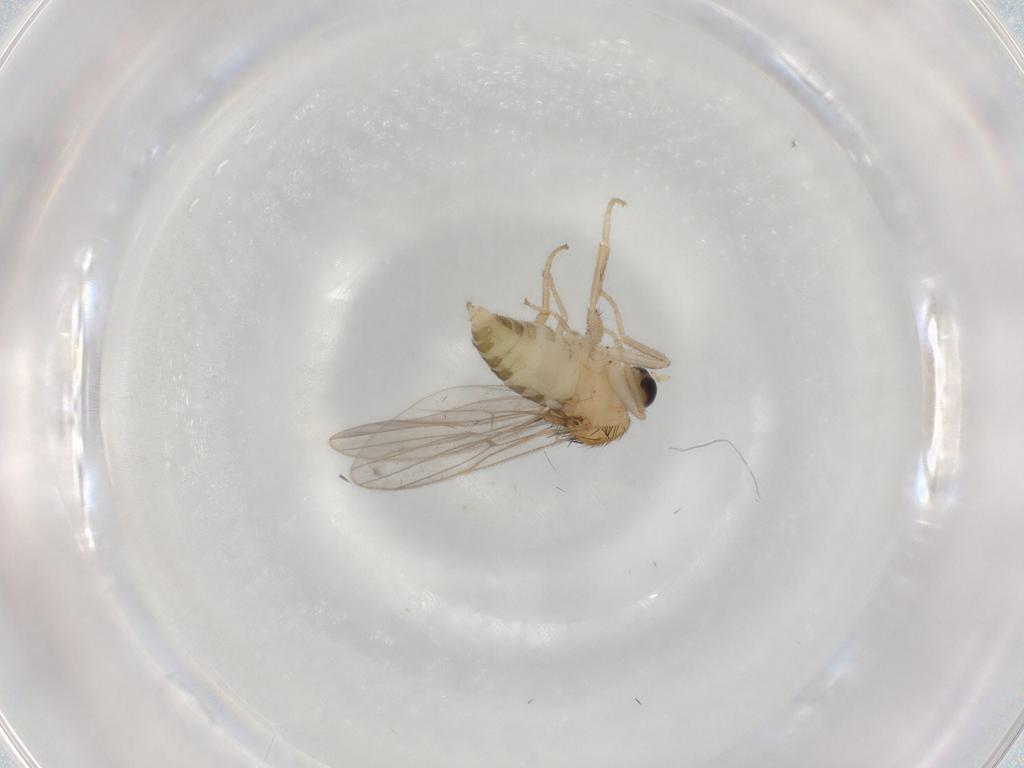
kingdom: Animalia
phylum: Arthropoda
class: Insecta
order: Diptera
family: Hybotidae
